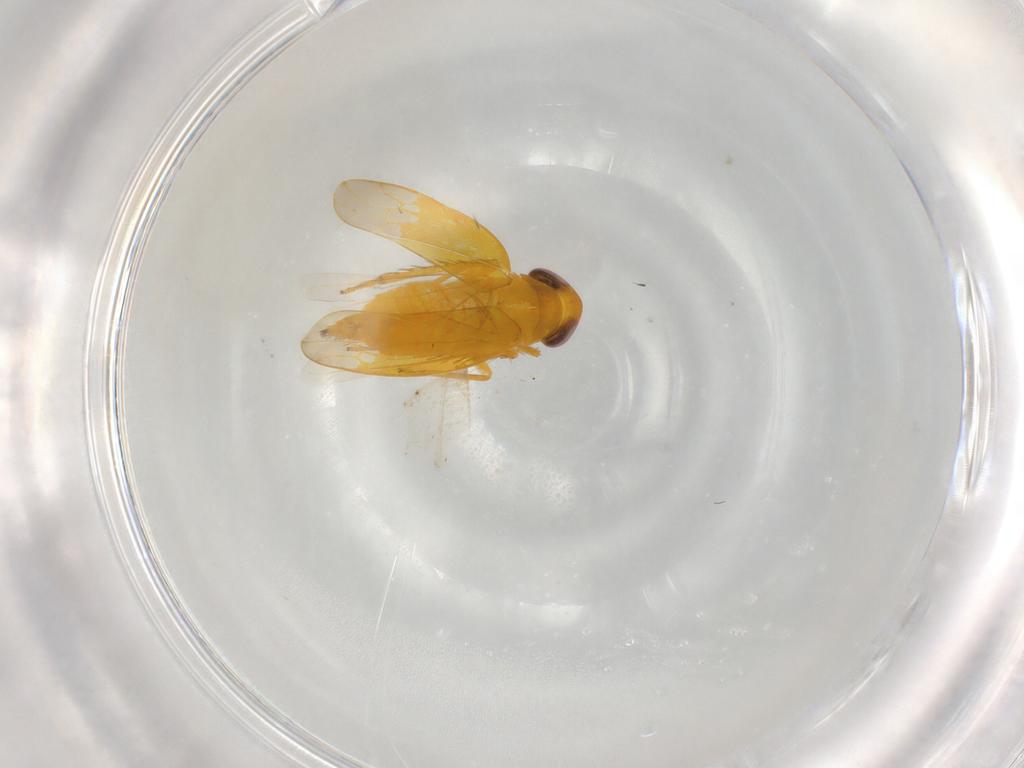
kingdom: Animalia
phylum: Arthropoda
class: Insecta
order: Hemiptera
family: Cicadellidae
